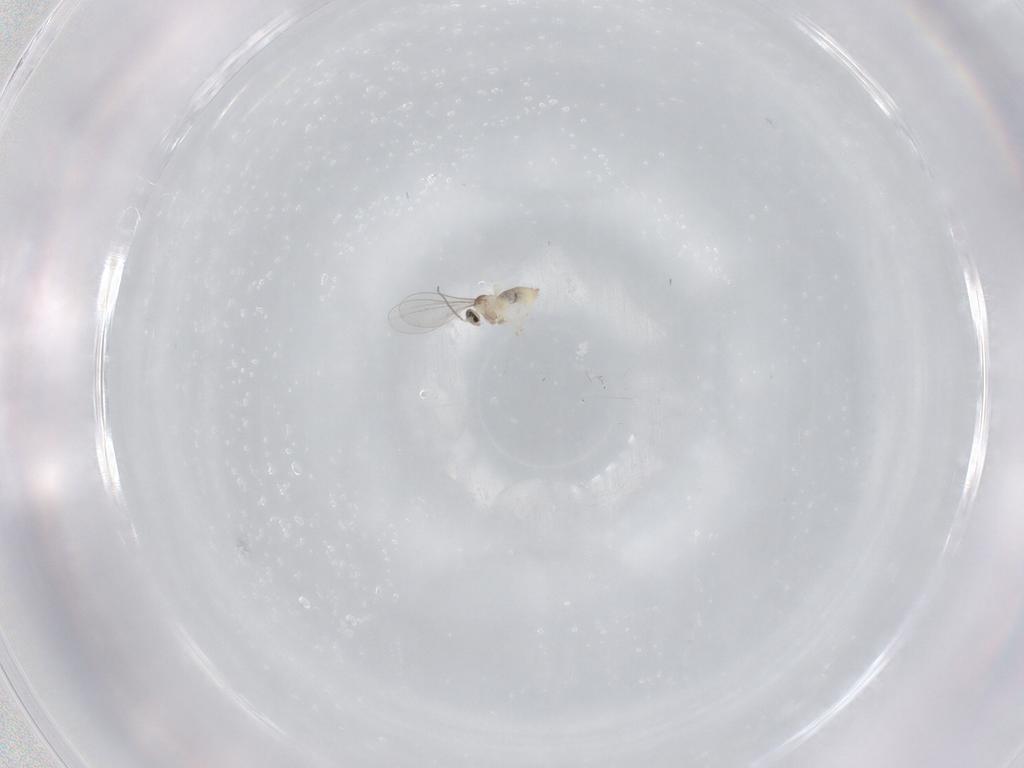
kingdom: Animalia
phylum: Arthropoda
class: Insecta
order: Diptera
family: Cecidomyiidae
